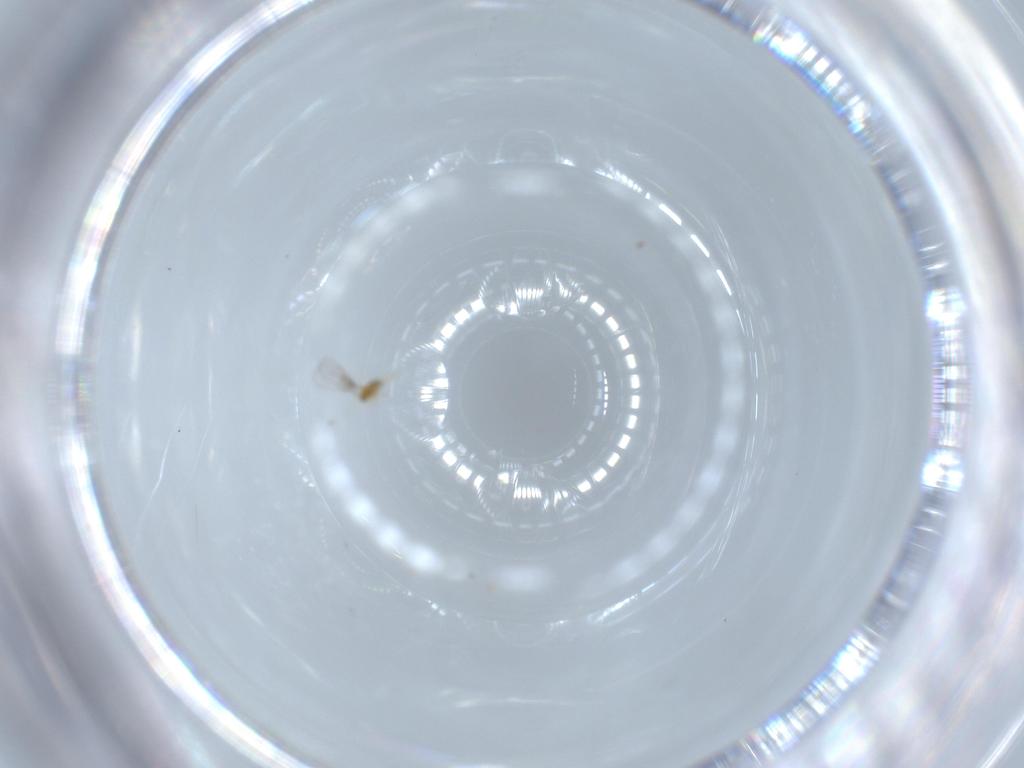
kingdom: Animalia
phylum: Arthropoda
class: Insecta
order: Hymenoptera
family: Trichogrammatidae
